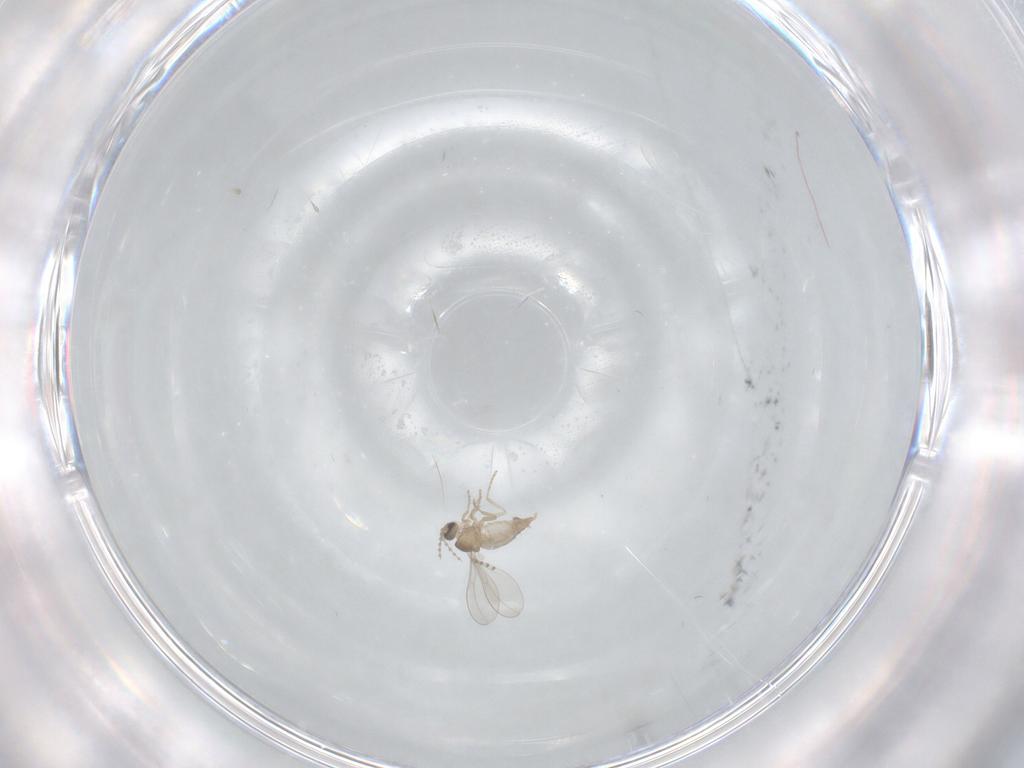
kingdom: Animalia
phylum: Arthropoda
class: Insecta
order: Diptera
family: Psychodidae
